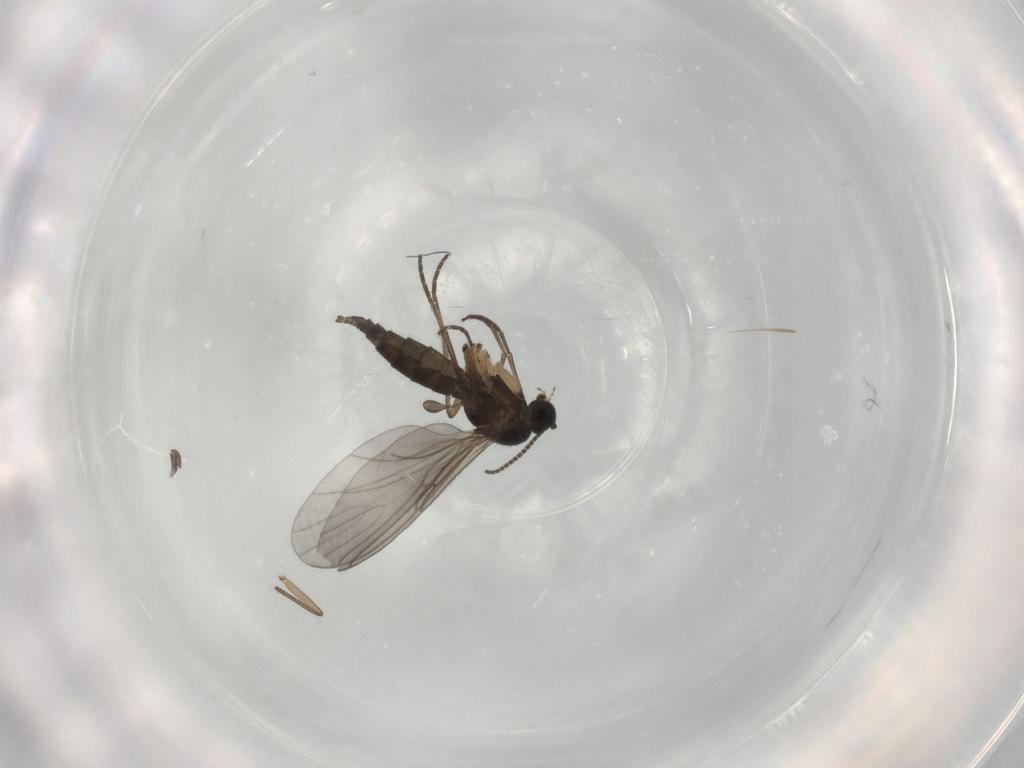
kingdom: Animalia
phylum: Arthropoda
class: Insecta
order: Diptera
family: Sciaridae
